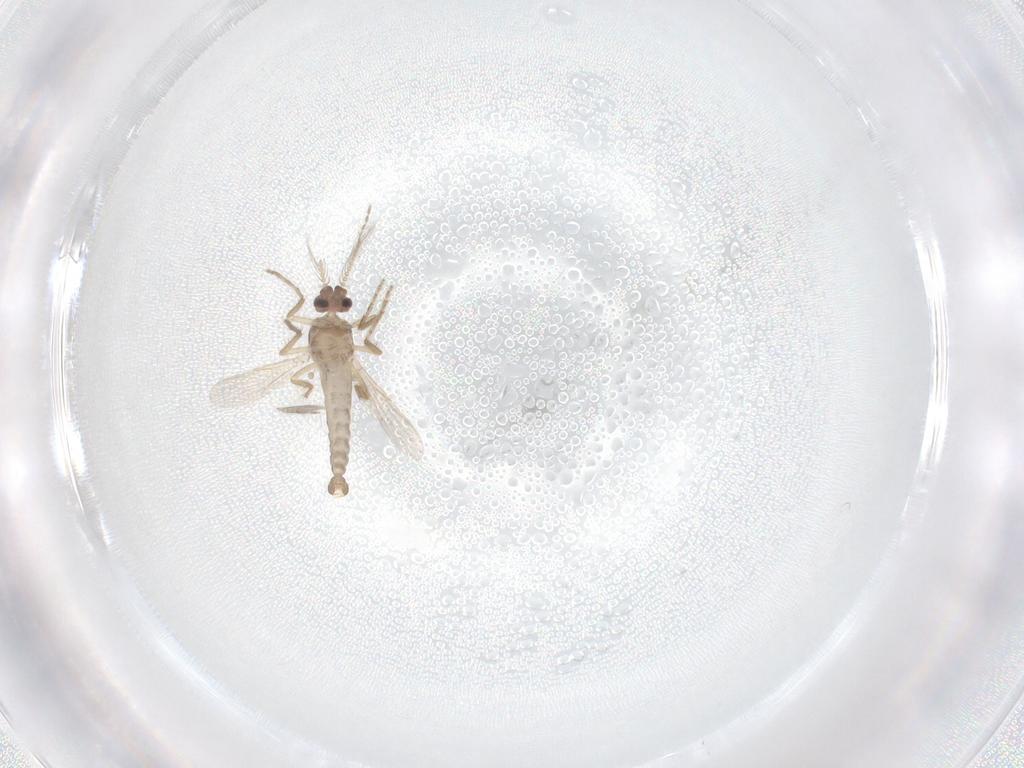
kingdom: Animalia
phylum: Arthropoda
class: Insecta
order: Diptera
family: Ceratopogonidae
